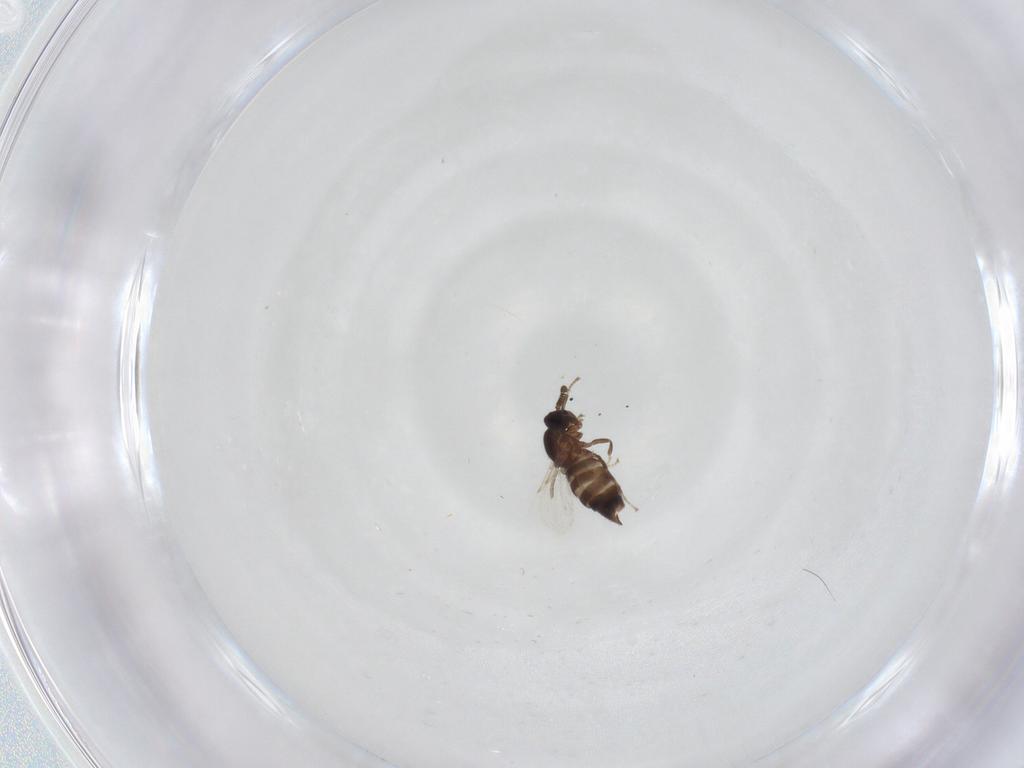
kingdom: Animalia
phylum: Arthropoda
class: Insecta
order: Diptera
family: Scatopsidae
